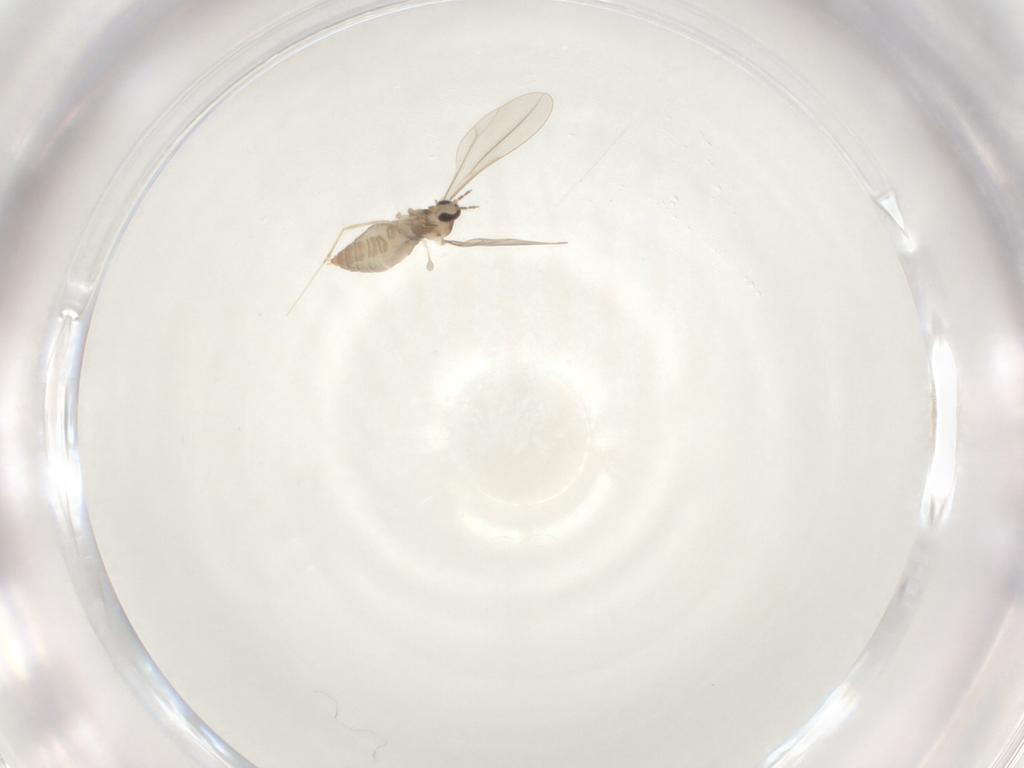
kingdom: Animalia
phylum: Arthropoda
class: Insecta
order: Diptera
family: Cecidomyiidae
